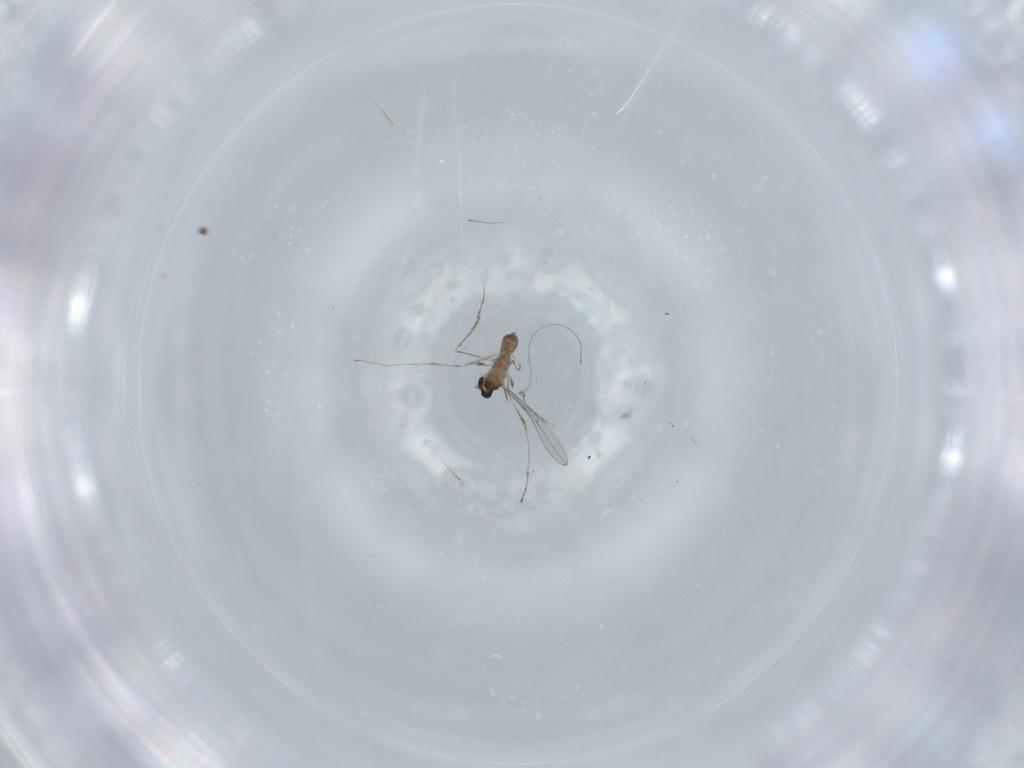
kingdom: Animalia
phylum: Arthropoda
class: Insecta
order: Diptera
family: Cecidomyiidae
